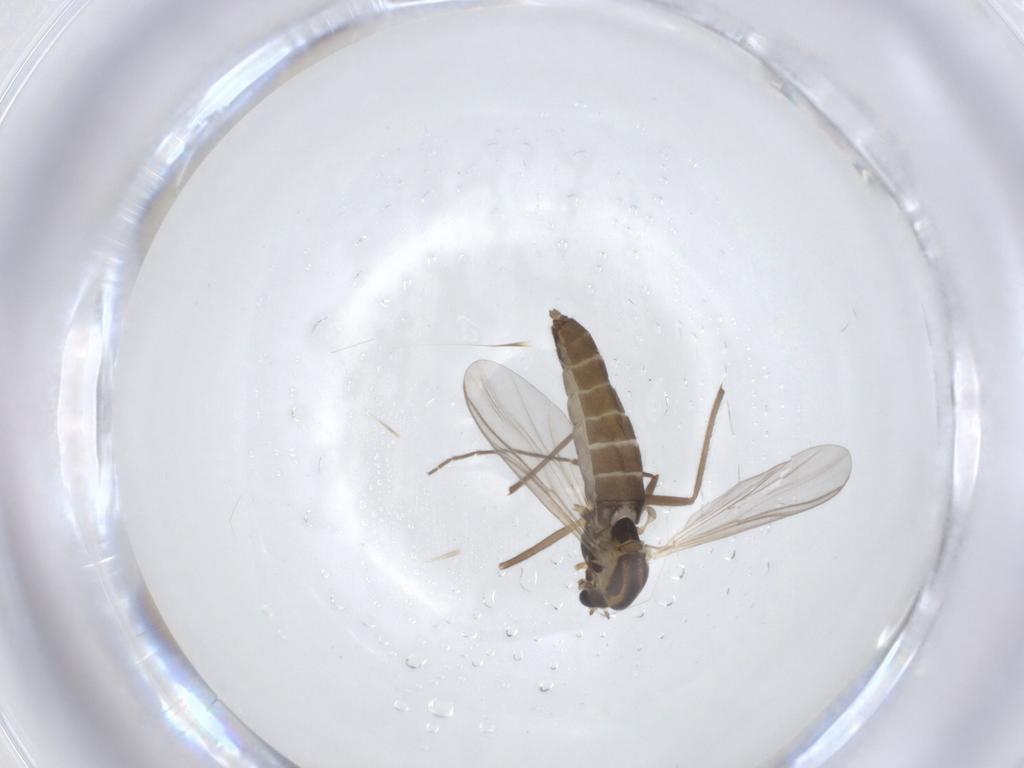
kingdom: Animalia
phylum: Arthropoda
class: Insecta
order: Diptera
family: Chironomidae
